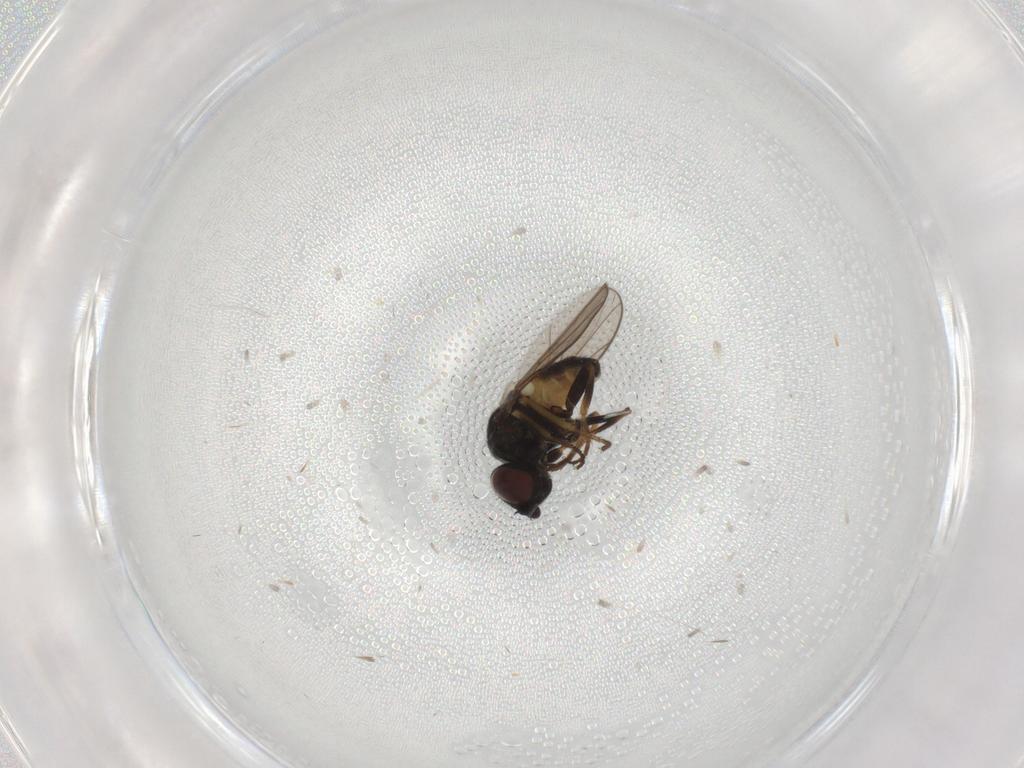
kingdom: Animalia
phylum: Arthropoda
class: Insecta
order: Diptera
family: Chloropidae
